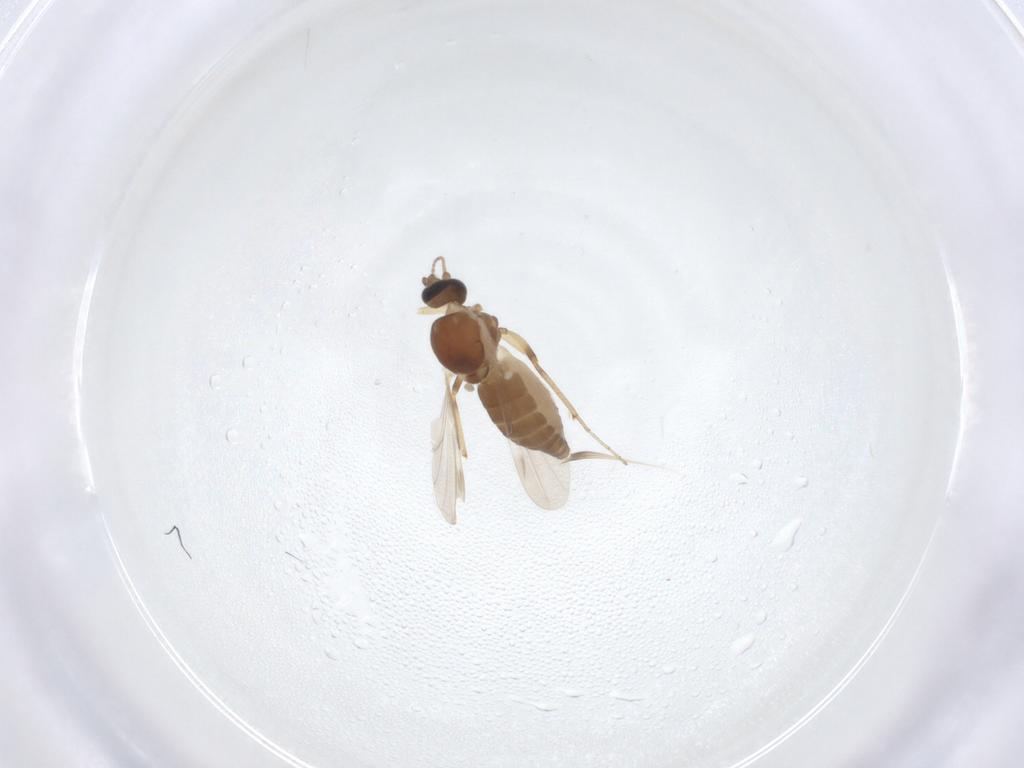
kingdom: Animalia
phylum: Arthropoda
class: Insecta
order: Diptera
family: Ceratopogonidae
